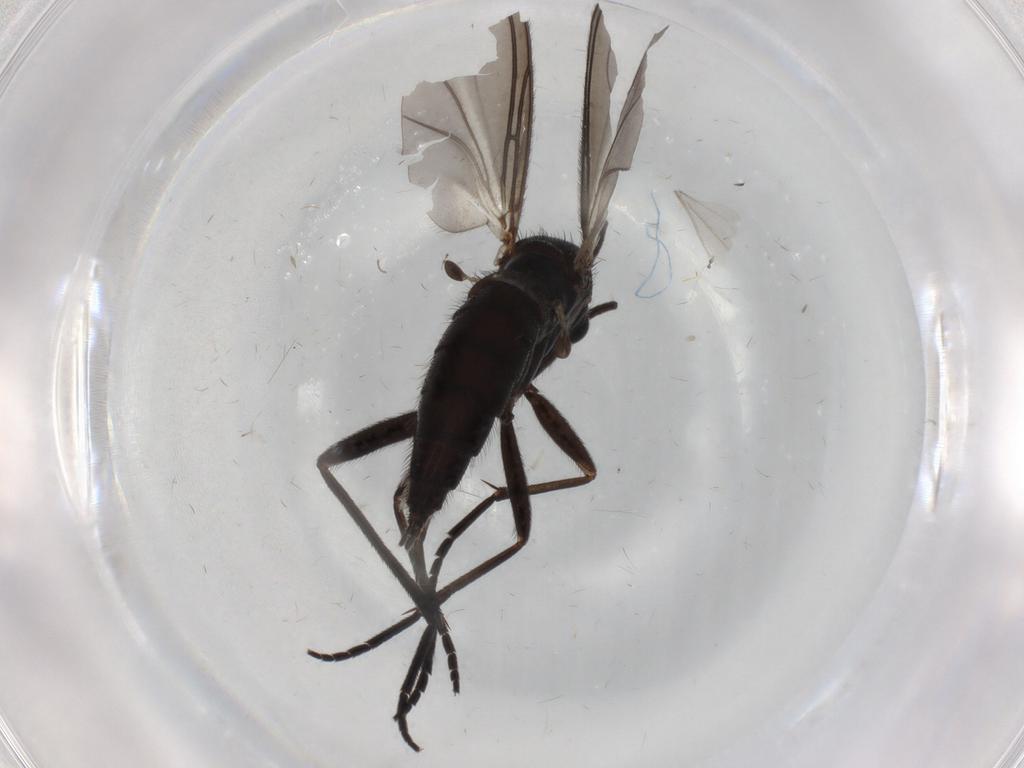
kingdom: Animalia
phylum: Arthropoda
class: Insecta
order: Diptera
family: Sciaridae
